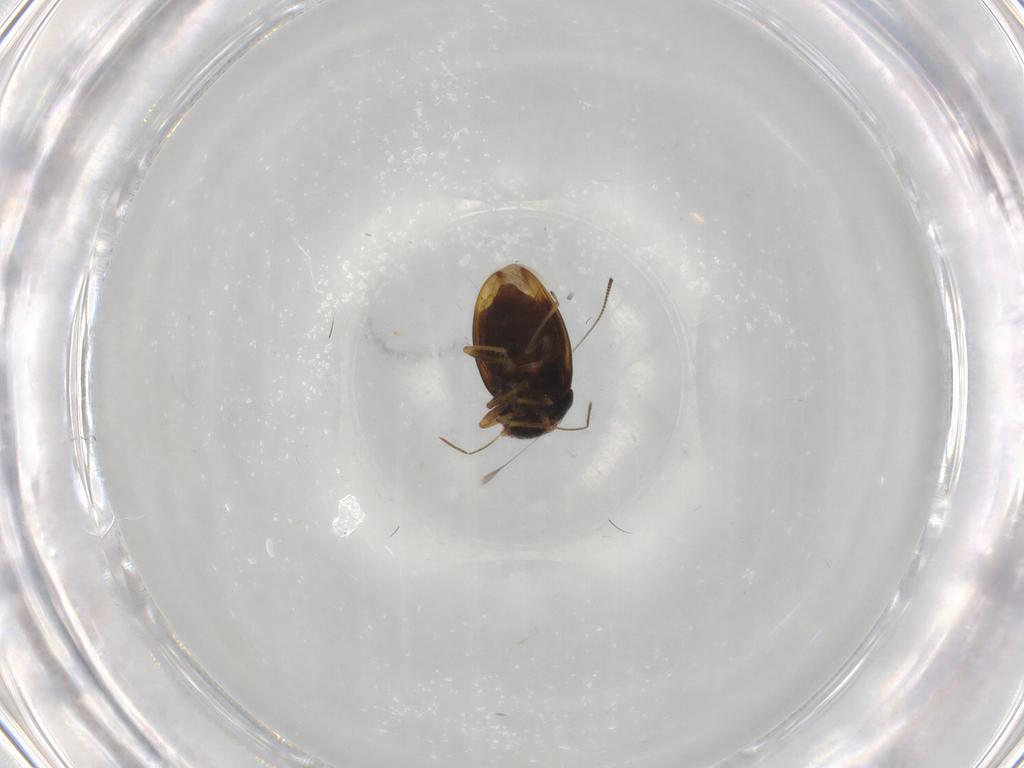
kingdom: Animalia
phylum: Arthropoda
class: Insecta
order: Hemiptera
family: Schizopteridae
